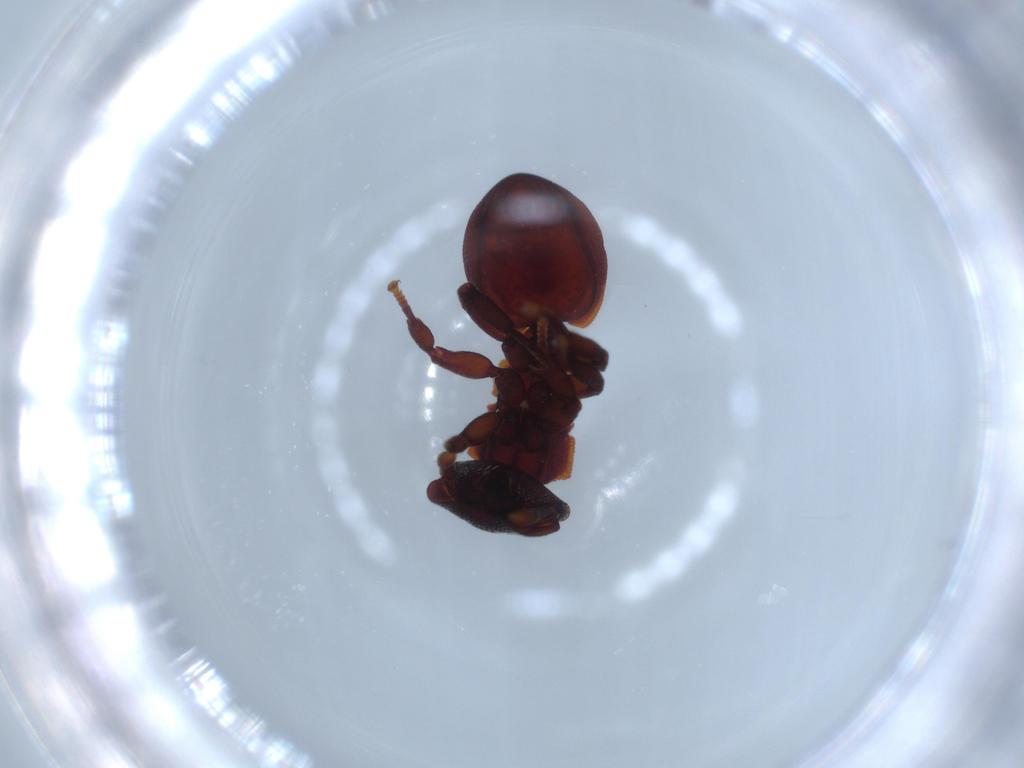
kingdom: Animalia
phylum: Arthropoda
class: Insecta
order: Hymenoptera
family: Formicidae
